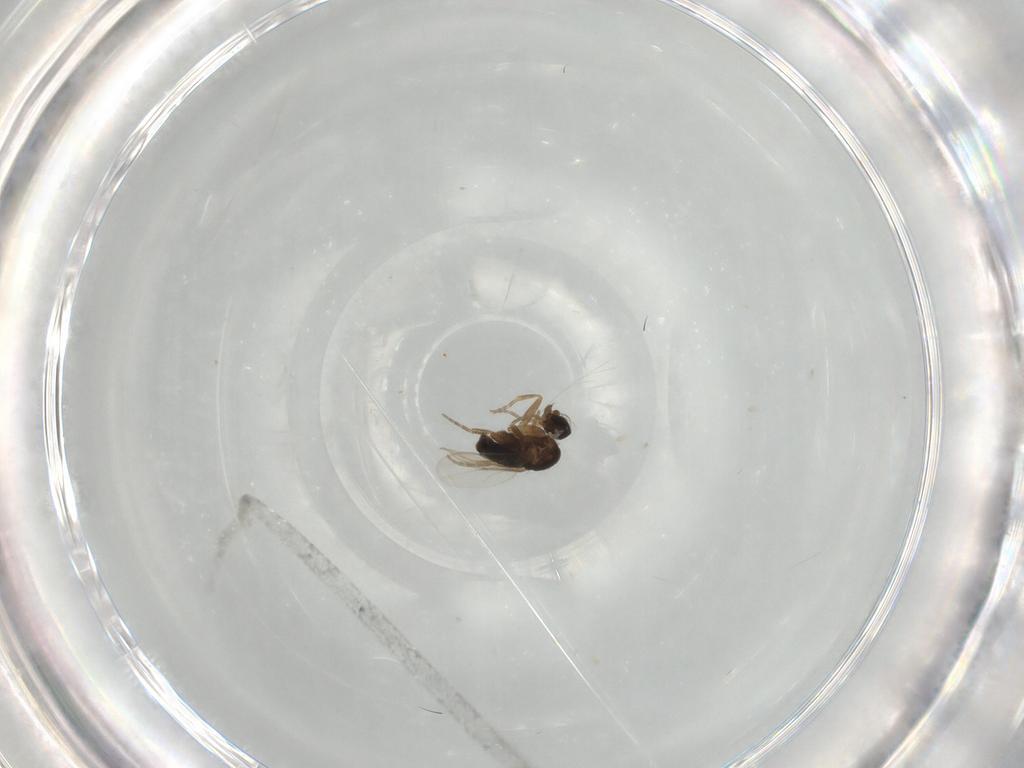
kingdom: Animalia
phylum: Arthropoda
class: Insecta
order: Diptera
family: Phoridae
